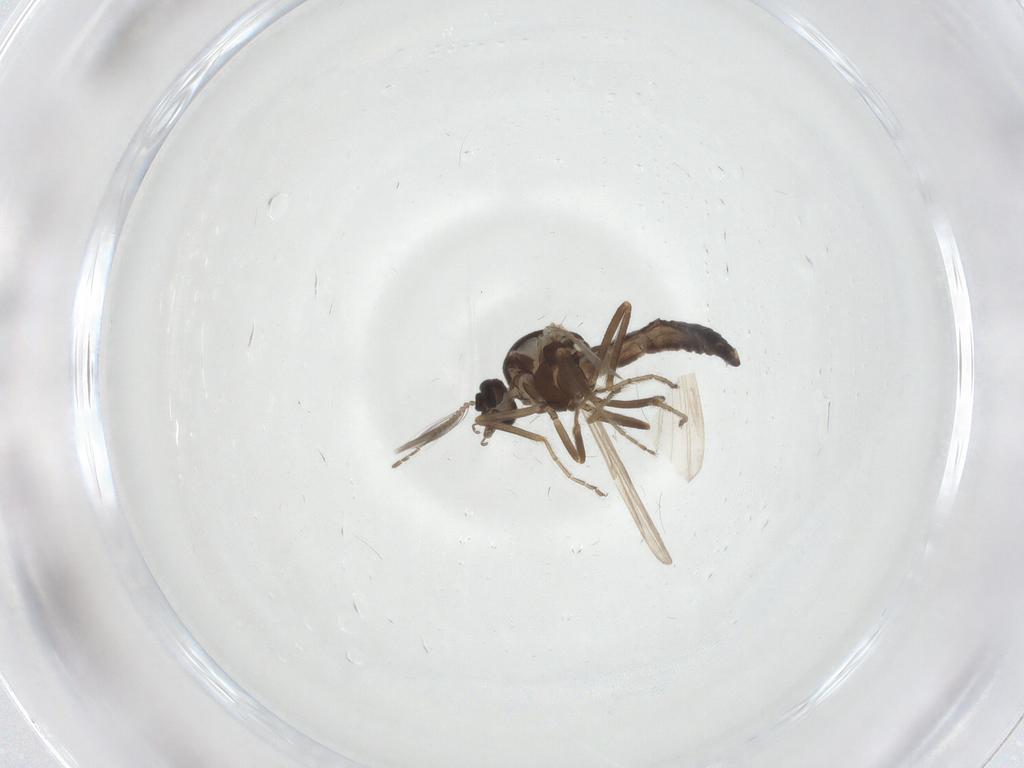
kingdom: Animalia
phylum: Arthropoda
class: Insecta
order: Diptera
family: Ceratopogonidae
